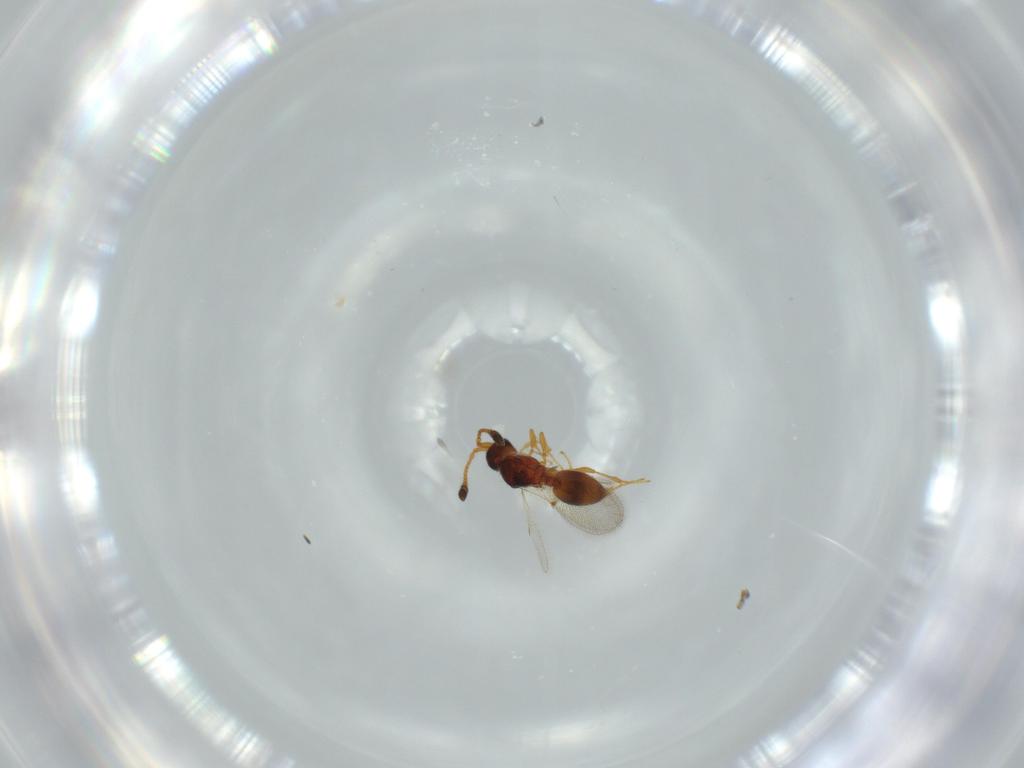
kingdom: Animalia
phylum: Arthropoda
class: Insecta
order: Hymenoptera
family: Diapriidae
